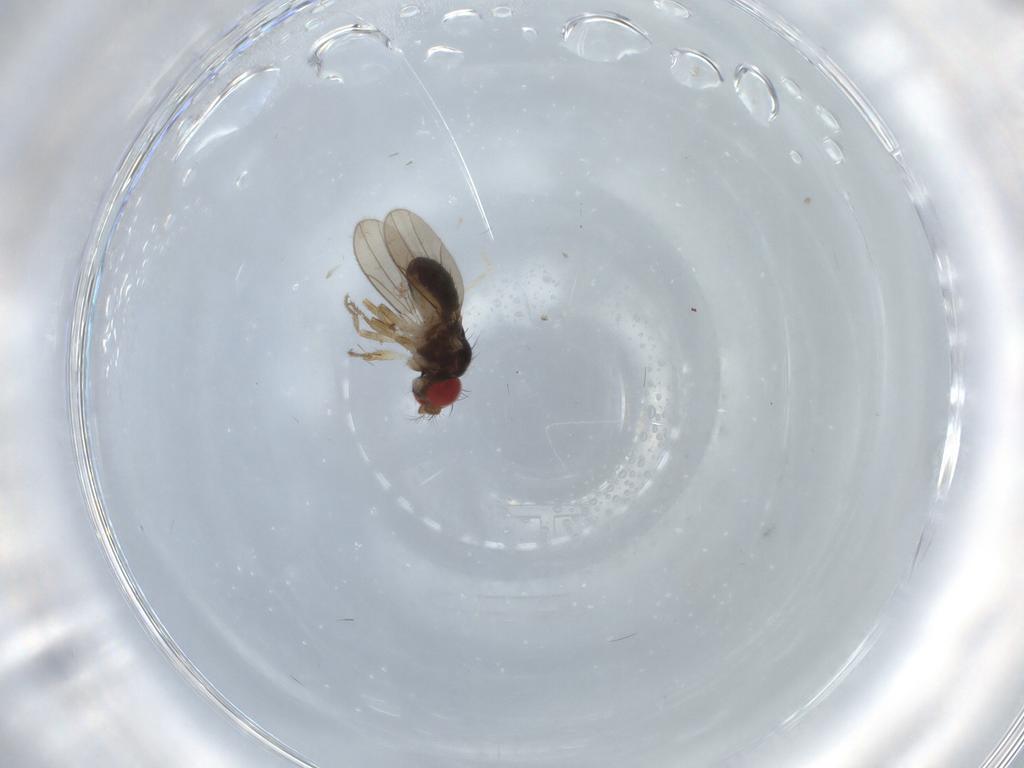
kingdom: Animalia
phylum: Arthropoda
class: Insecta
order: Diptera
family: Drosophilidae
